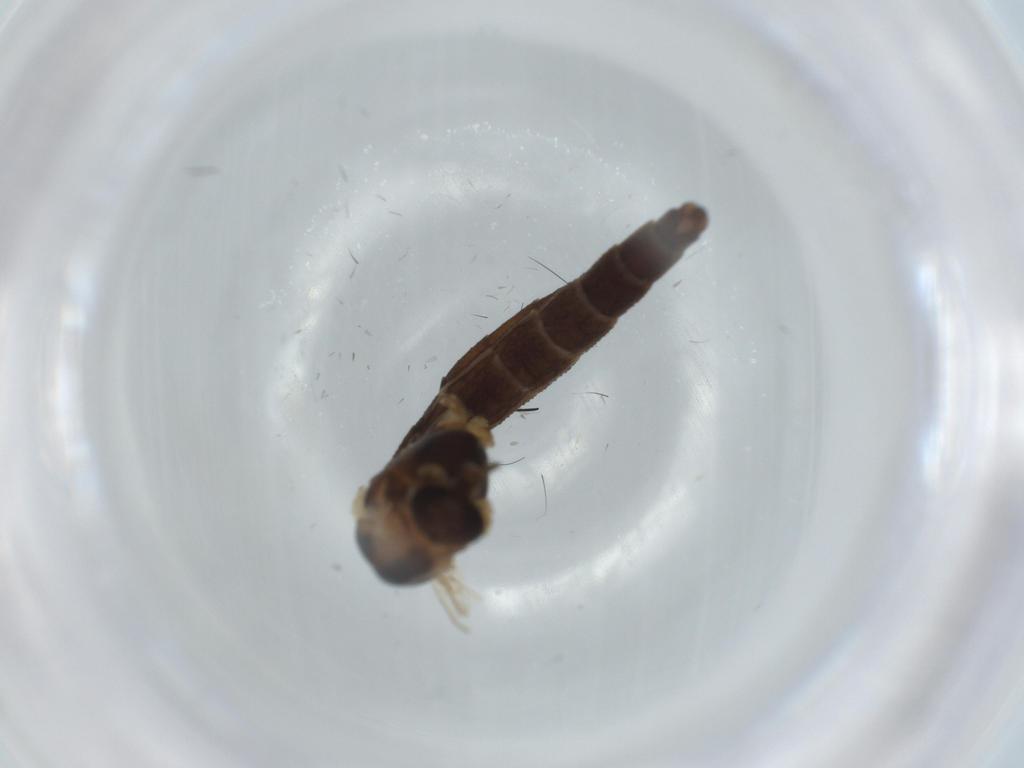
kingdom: Animalia
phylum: Arthropoda
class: Insecta
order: Diptera
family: Chironomidae
